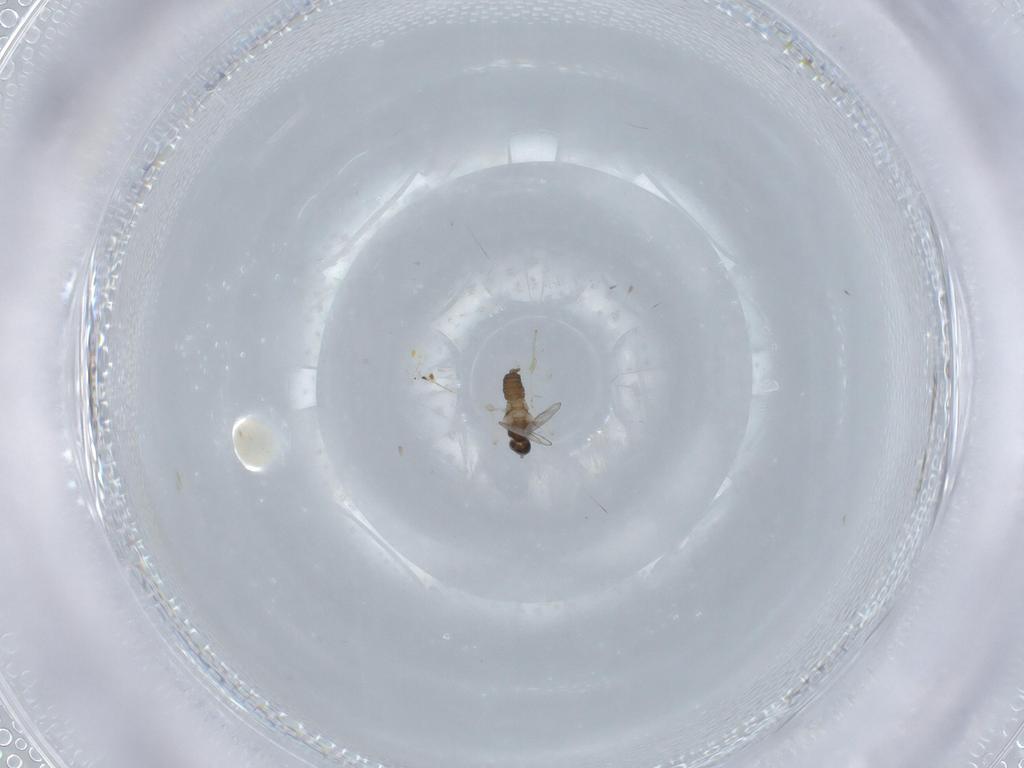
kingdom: Animalia
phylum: Arthropoda
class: Insecta
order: Diptera
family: Cecidomyiidae
